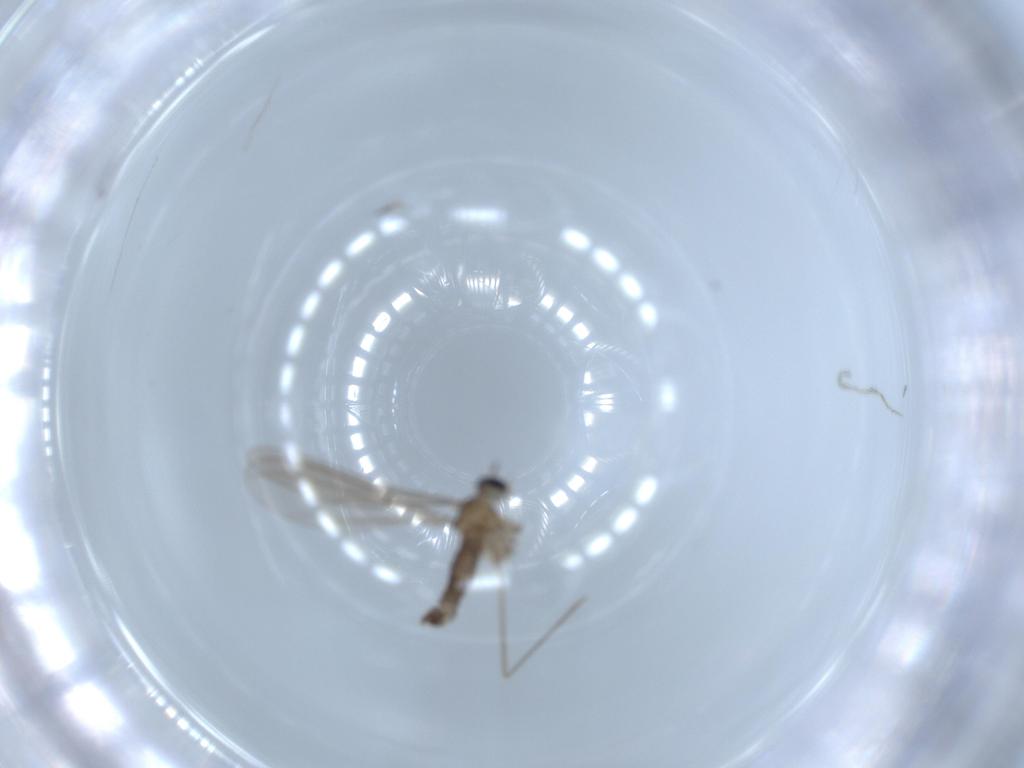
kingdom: Animalia
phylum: Arthropoda
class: Insecta
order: Diptera
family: Cecidomyiidae
